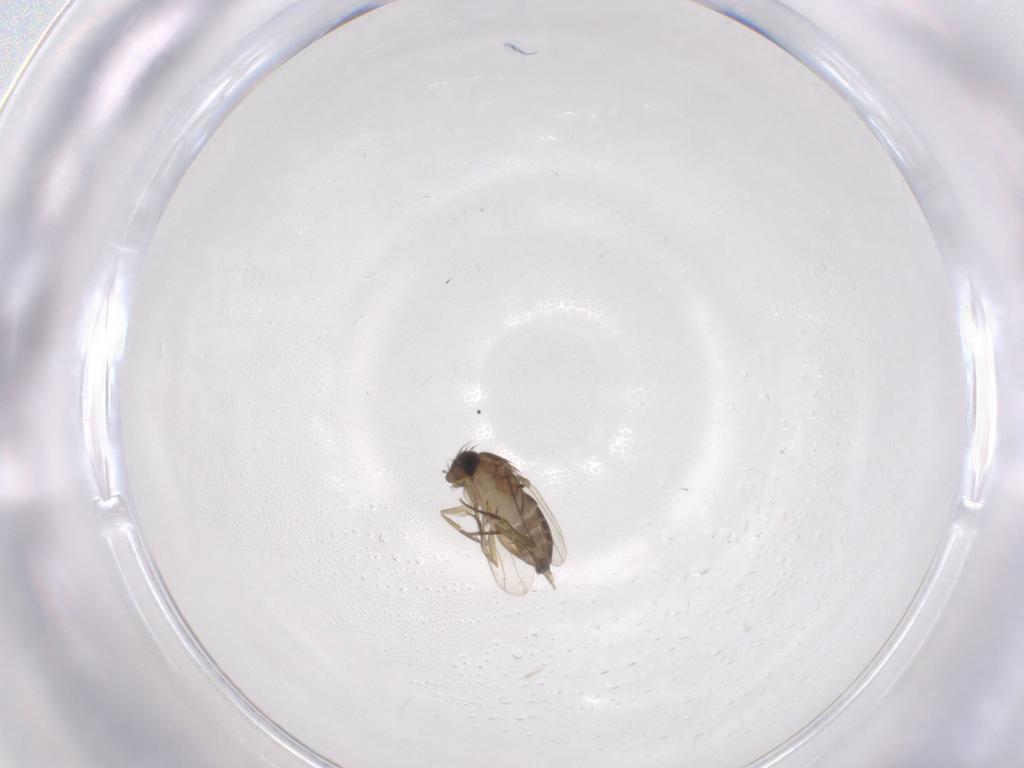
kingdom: Animalia
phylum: Arthropoda
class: Insecta
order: Diptera
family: Phoridae
